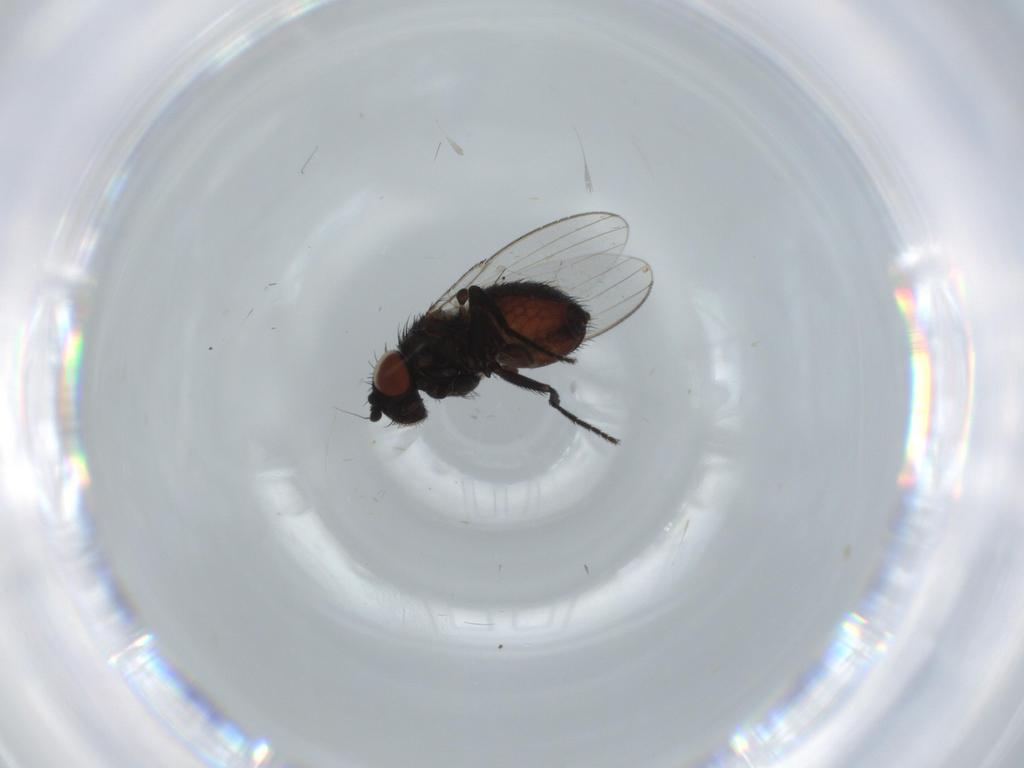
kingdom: Animalia
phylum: Arthropoda
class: Insecta
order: Diptera
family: Milichiidae
